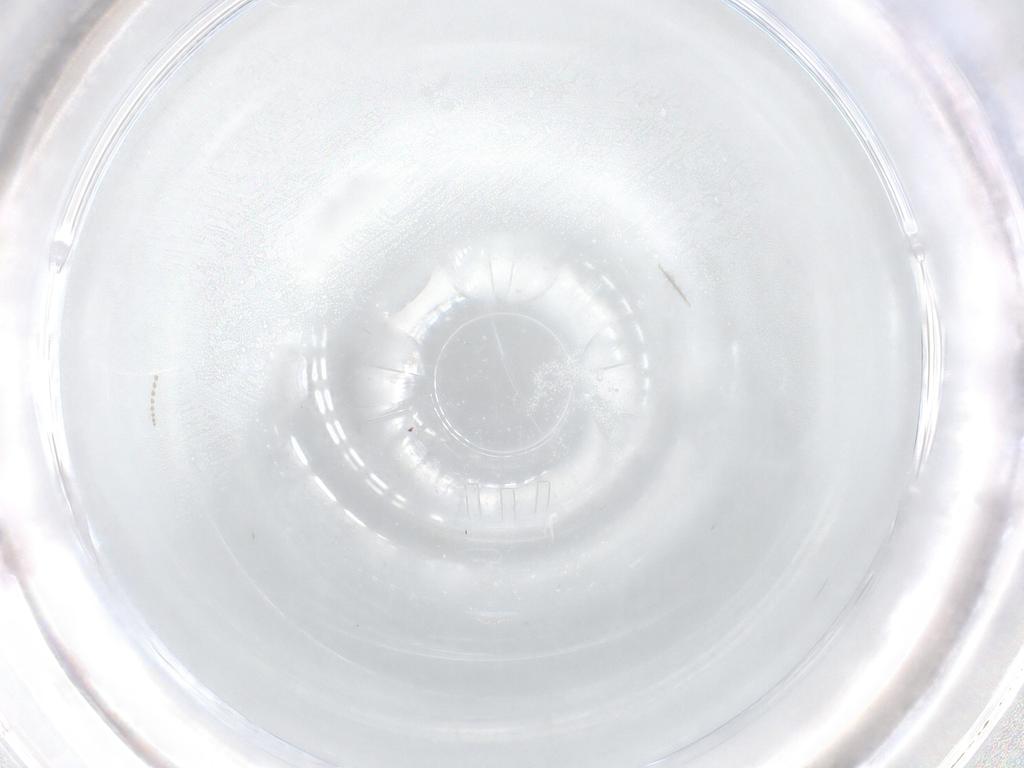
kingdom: Animalia
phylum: Arthropoda
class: Insecta
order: Diptera
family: Cecidomyiidae
